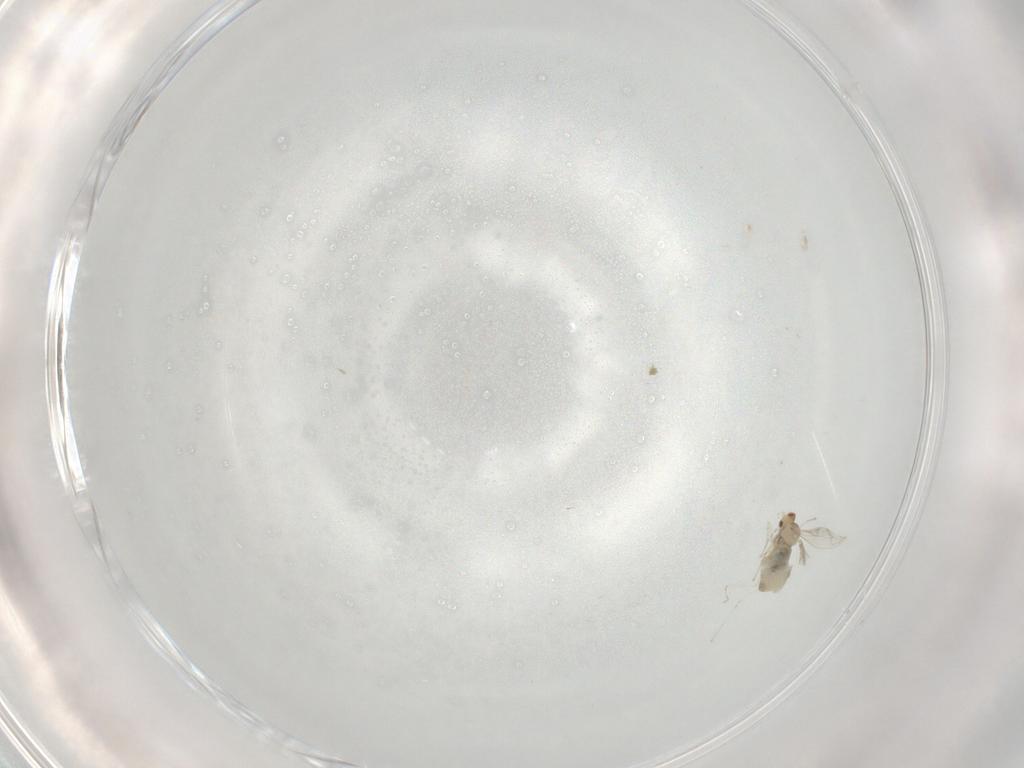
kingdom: Animalia
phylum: Arthropoda
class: Insecta
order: Diptera
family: Cecidomyiidae
